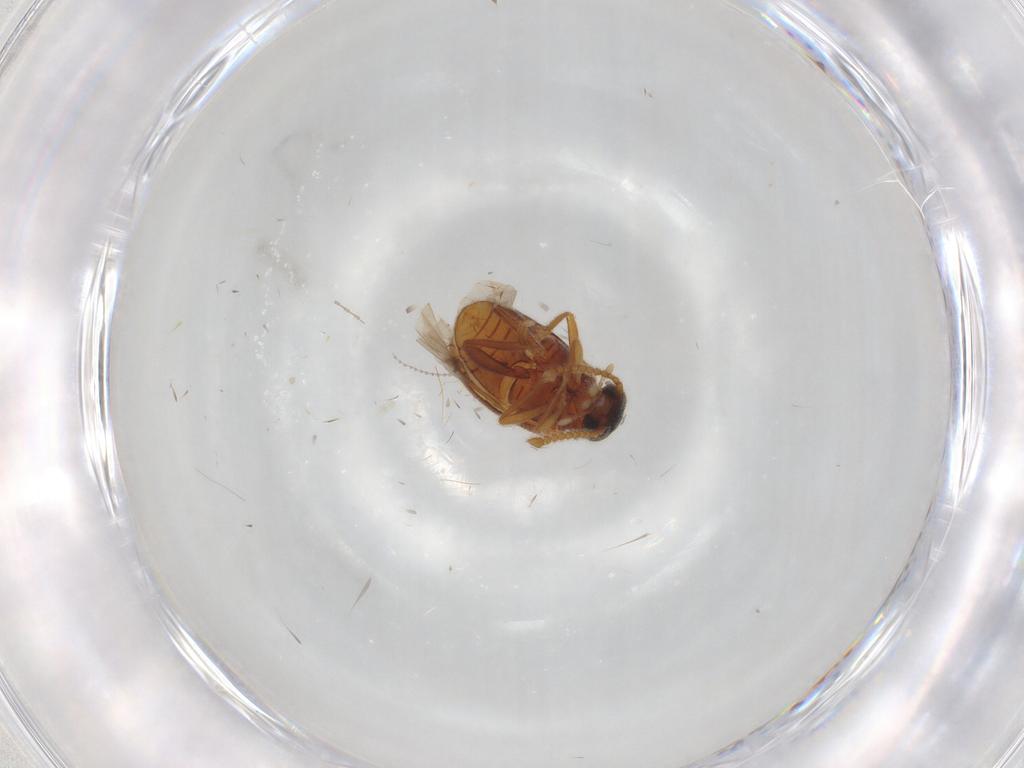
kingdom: Animalia
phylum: Arthropoda
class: Insecta
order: Coleoptera
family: Aderidae
